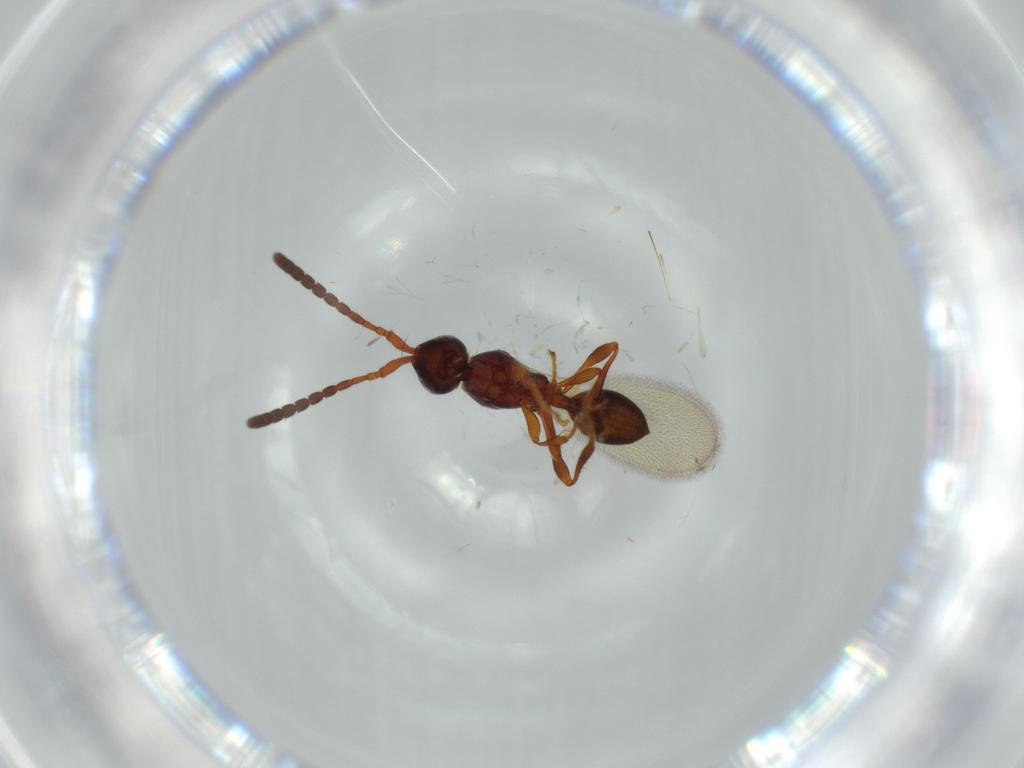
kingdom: Animalia
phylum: Arthropoda
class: Insecta
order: Hymenoptera
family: Diapriidae
